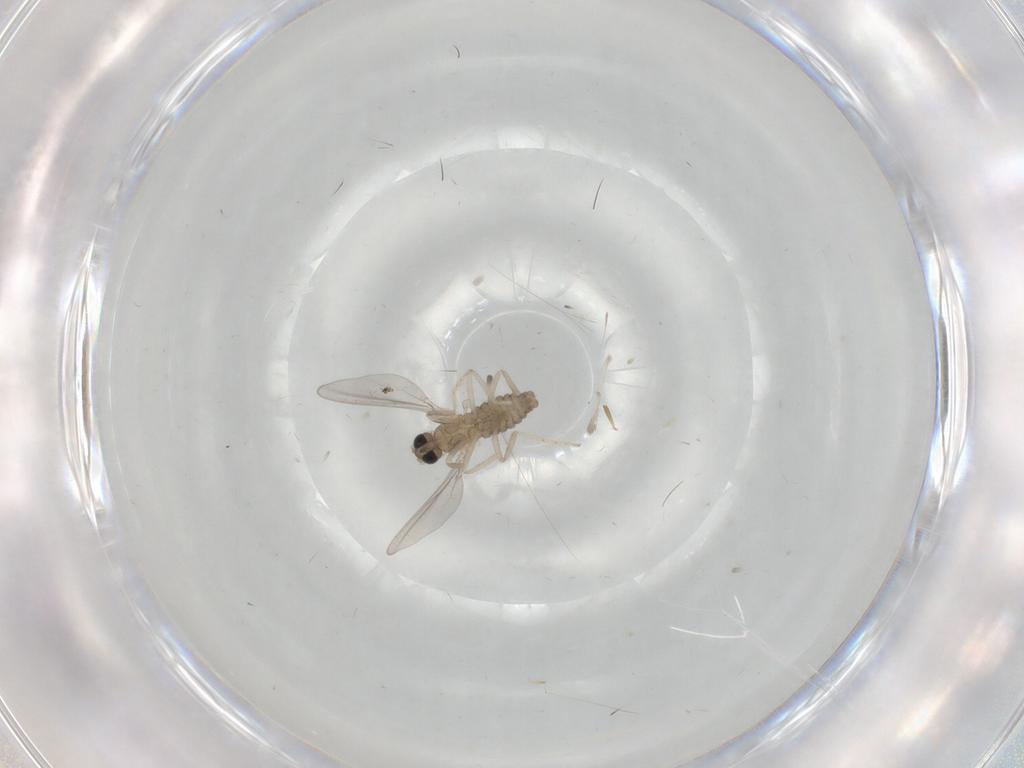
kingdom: Animalia
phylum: Arthropoda
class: Insecta
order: Diptera
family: Cecidomyiidae
